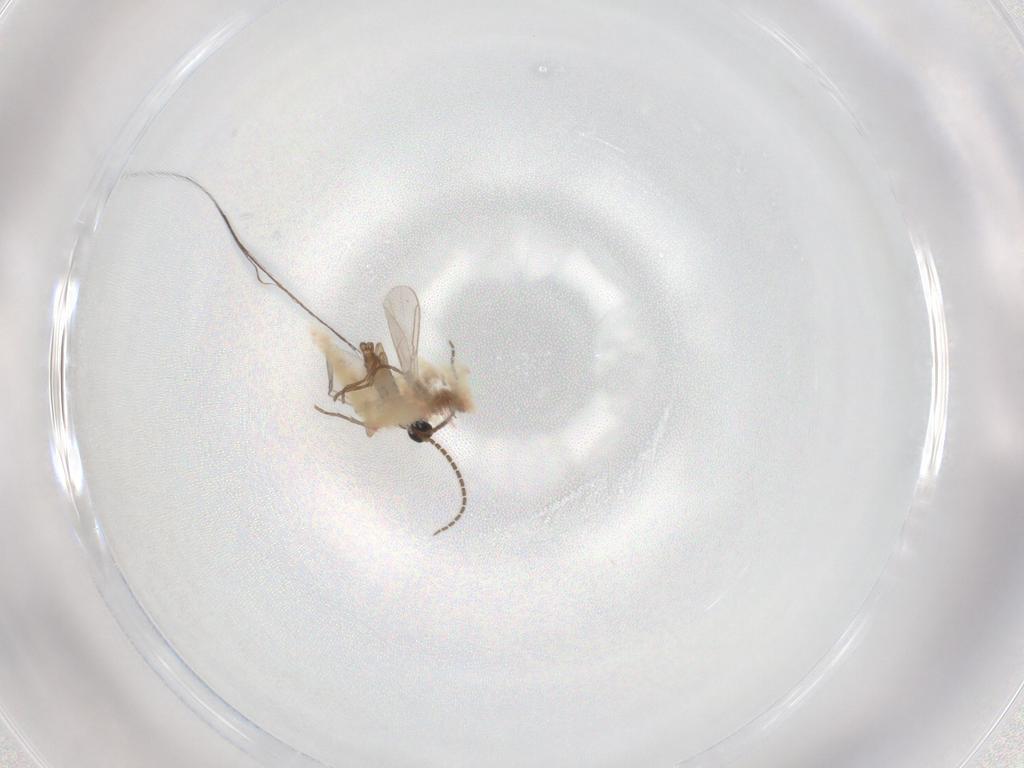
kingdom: Animalia
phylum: Arthropoda
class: Insecta
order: Diptera
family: Sciaridae
